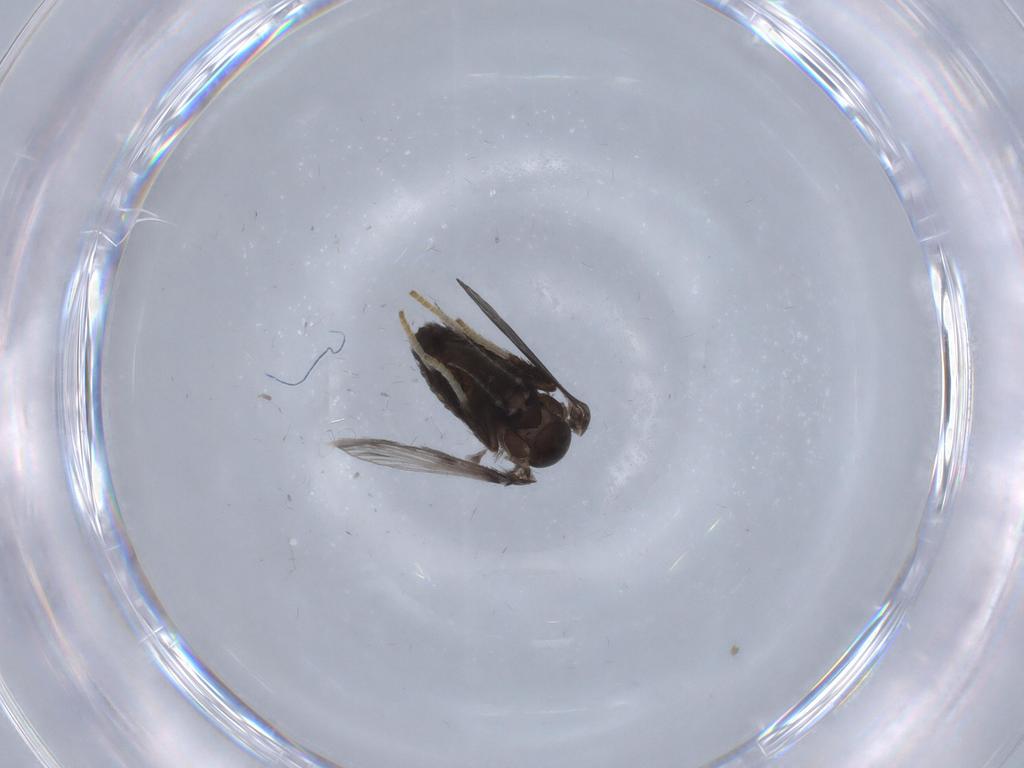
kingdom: Animalia
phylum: Arthropoda
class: Insecta
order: Diptera
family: Psychodidae
